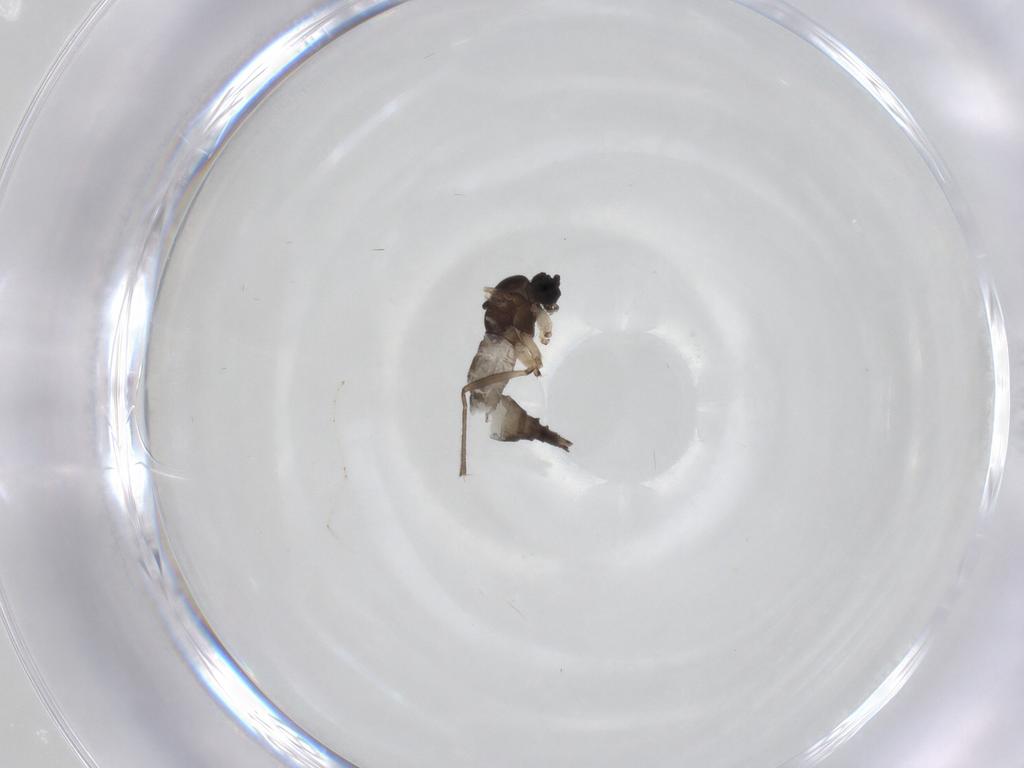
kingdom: Animalia
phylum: Arthropoda
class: Insecta
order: Diptera
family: Sciaridae
